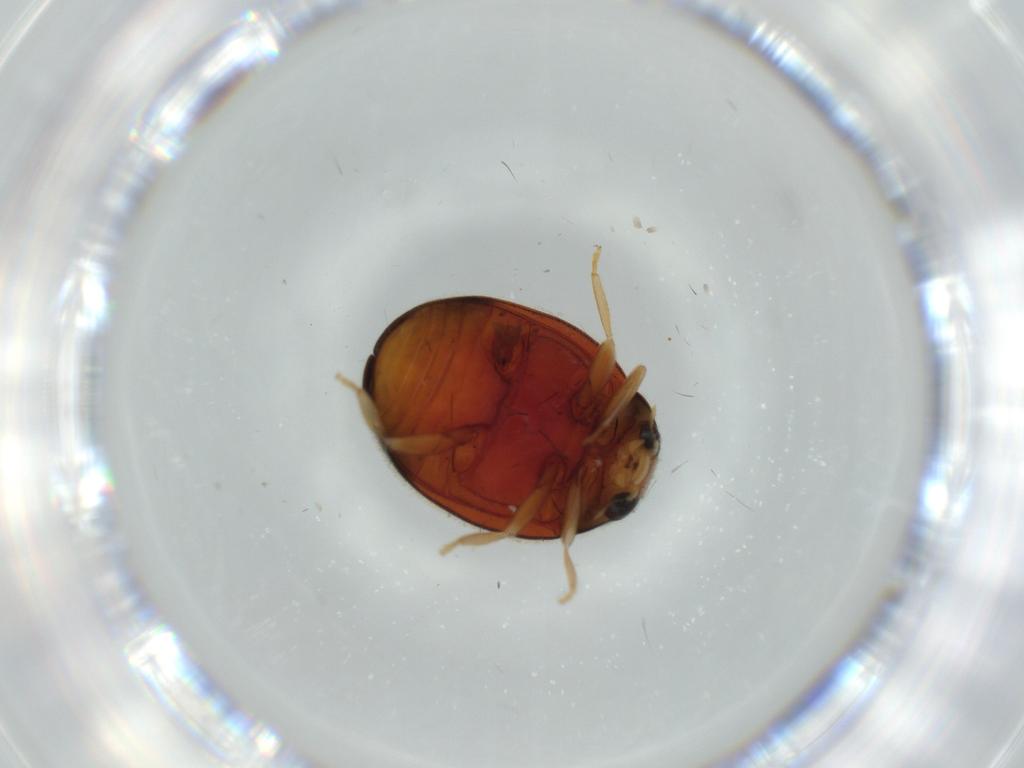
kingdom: Animalia
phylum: Arthropoda
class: Insecta
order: Coleoptera
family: Coccinellidae
